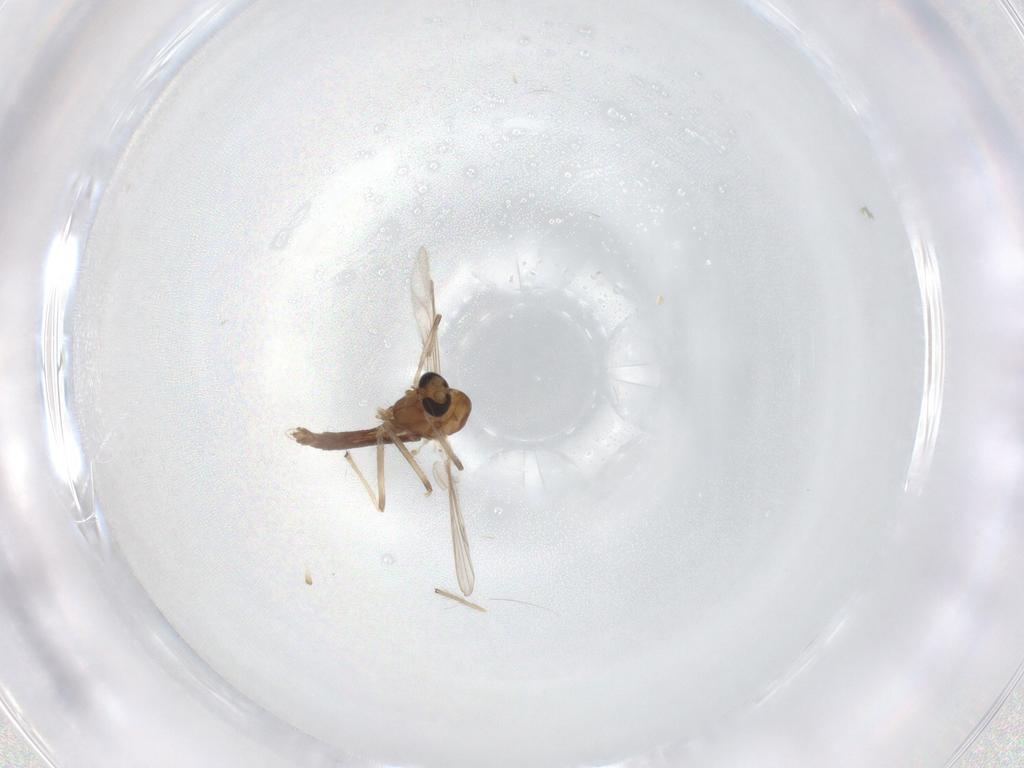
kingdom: Animalia
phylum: Arthropoda
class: Insecta
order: Diptera
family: Chironomidae
